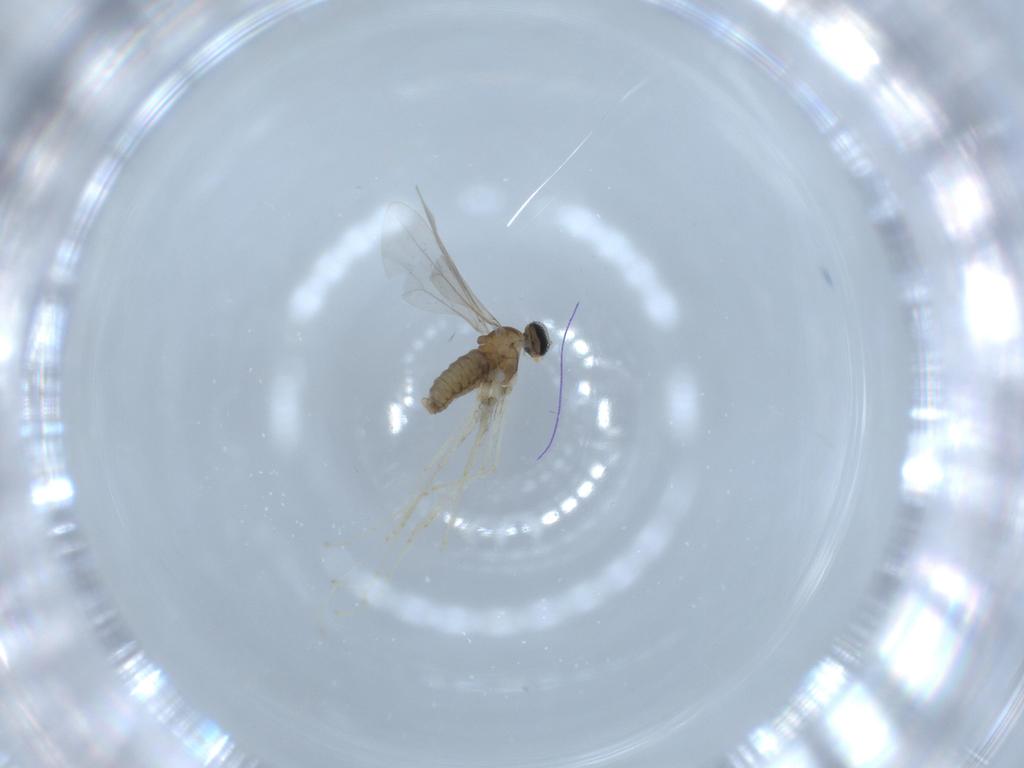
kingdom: Animalia
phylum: Arthropoda
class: Insecta
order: Diptera
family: Cecidomyiidae
